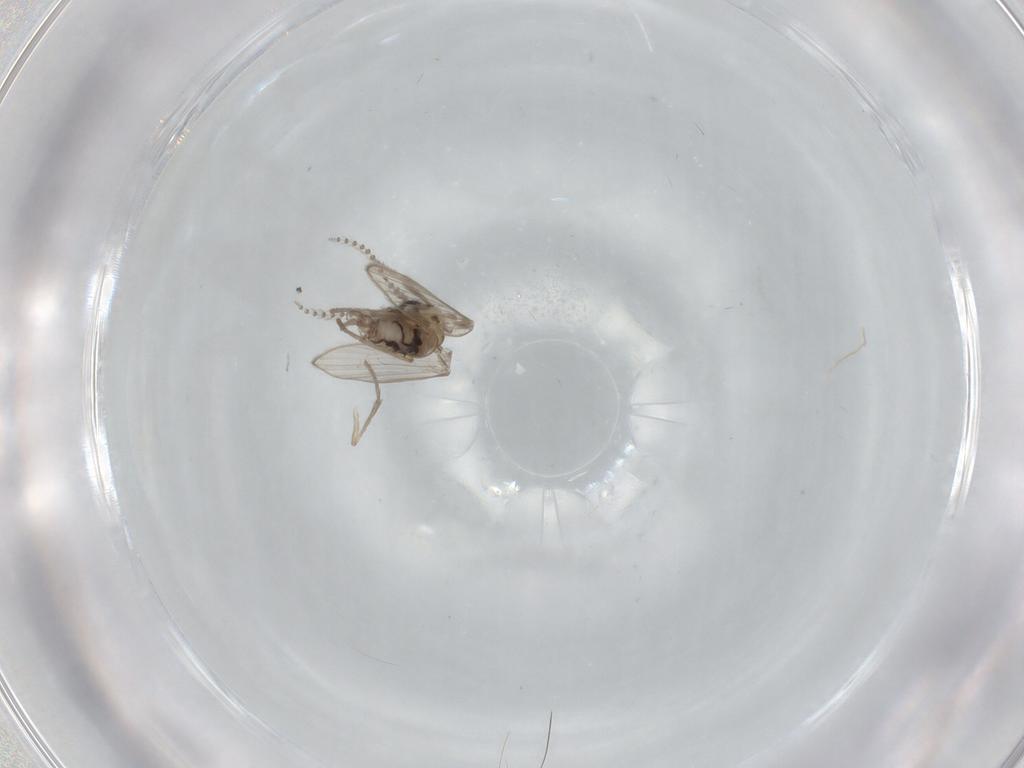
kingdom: Animalia
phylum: Arthropoda
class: Insecta
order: Diptera
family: Psychodidae
